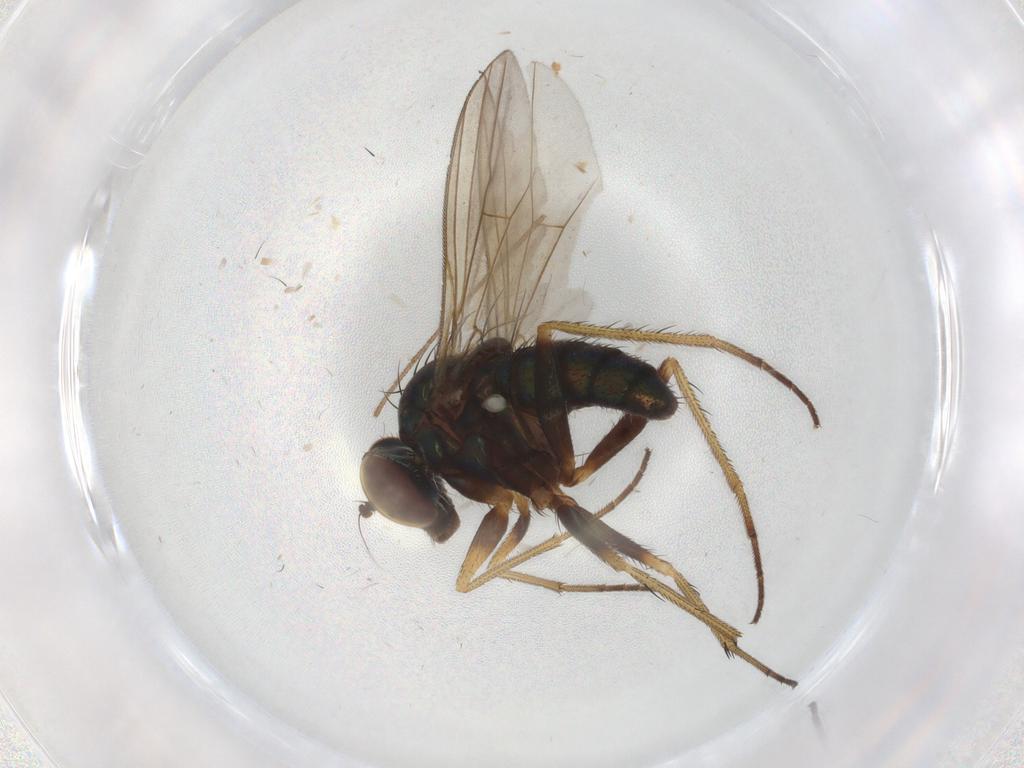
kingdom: Animalia
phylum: Arthropoda
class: Insecta
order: Diptera
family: Dolichopodidae
